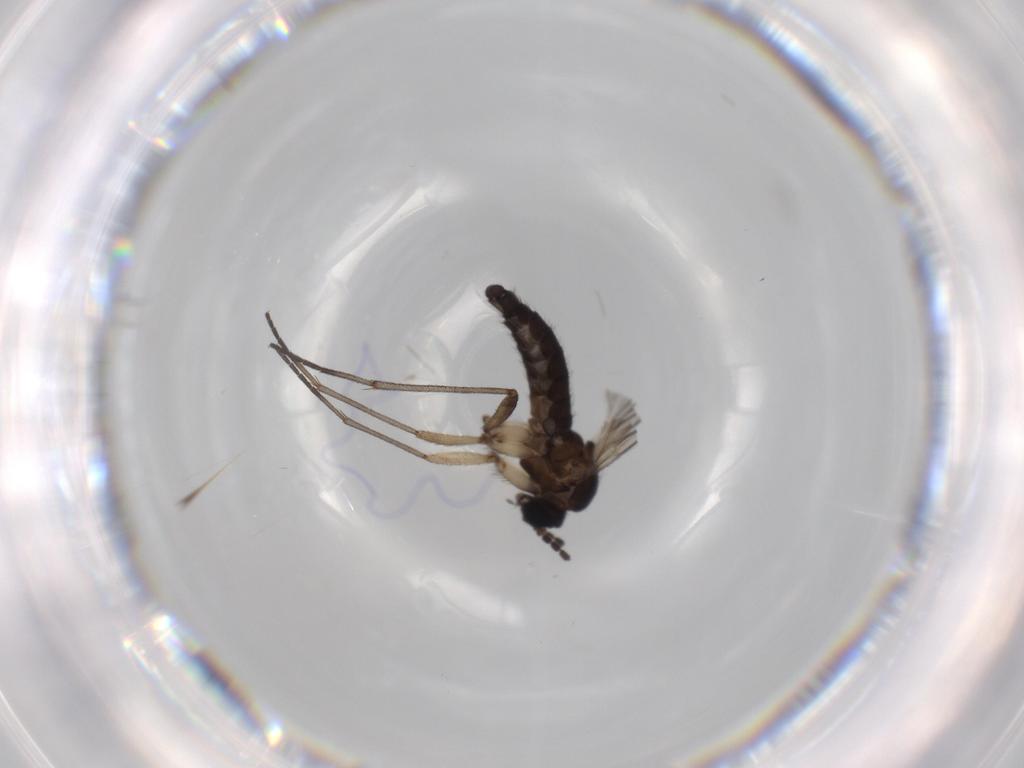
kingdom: Animalia
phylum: Arthropoda
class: Insecta
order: Diptera
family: Sciaridae
